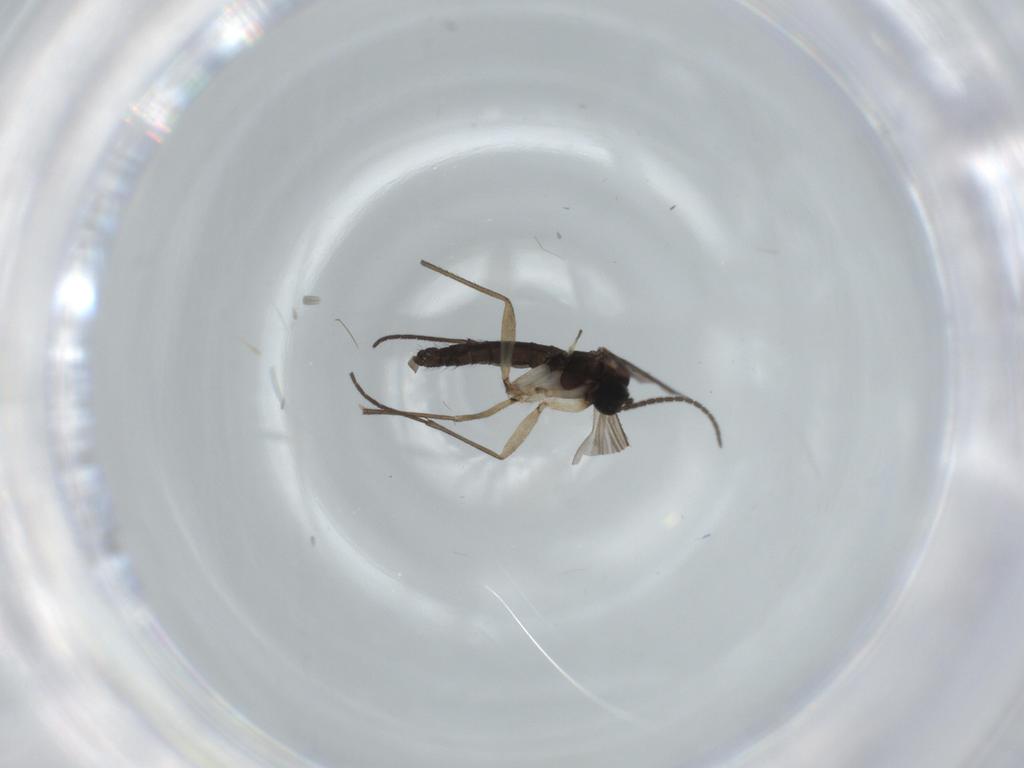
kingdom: Animalia
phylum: Arthropoda
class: Insecta
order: Diptera
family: Sciaridae
